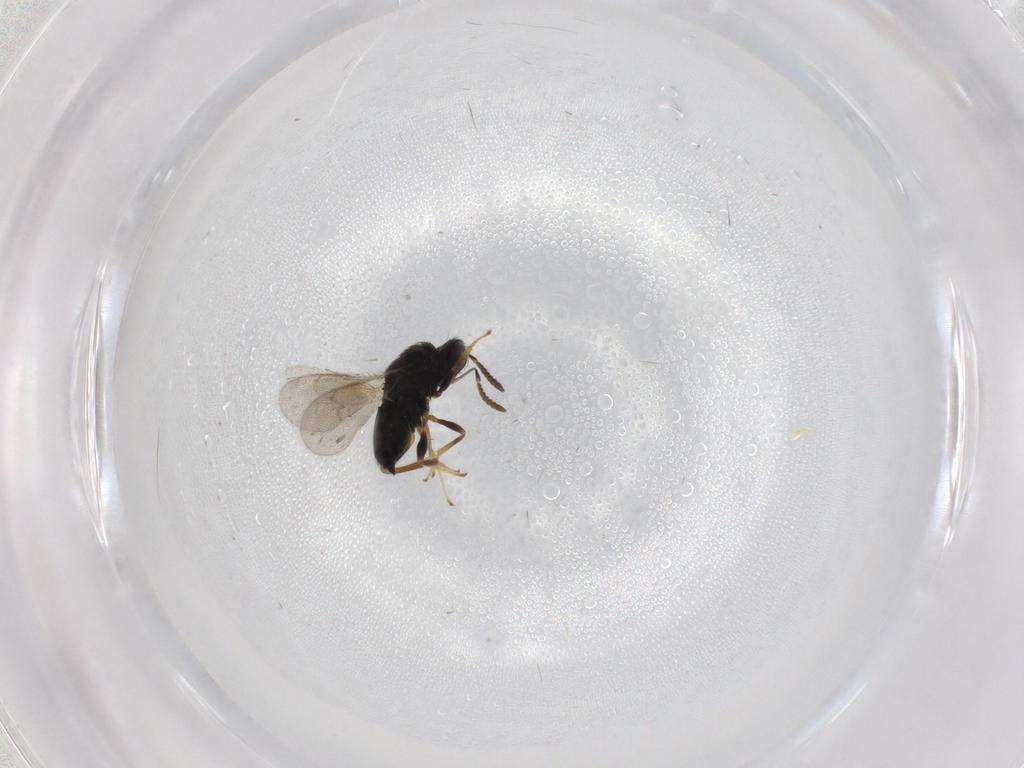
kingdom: Animalia
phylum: Arthropoda
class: Insecta
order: Hymenoptera
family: Pteromalidae
